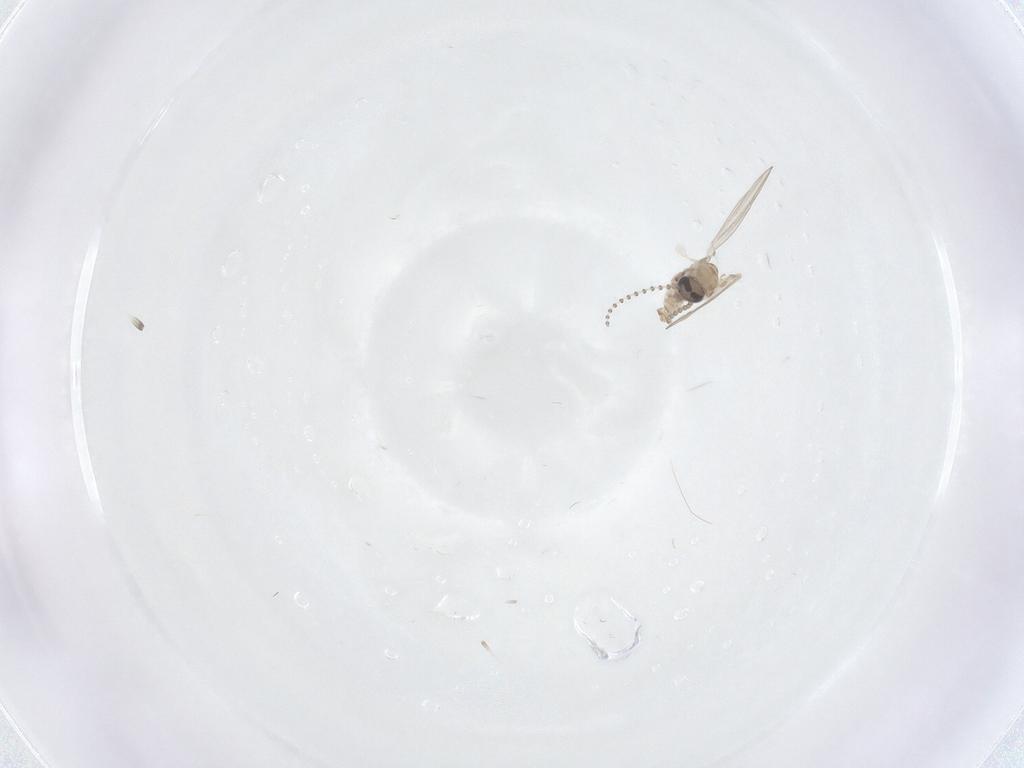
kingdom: Animalia
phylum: Arthropoda
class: Insecta
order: Diptera
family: Psychodidae
